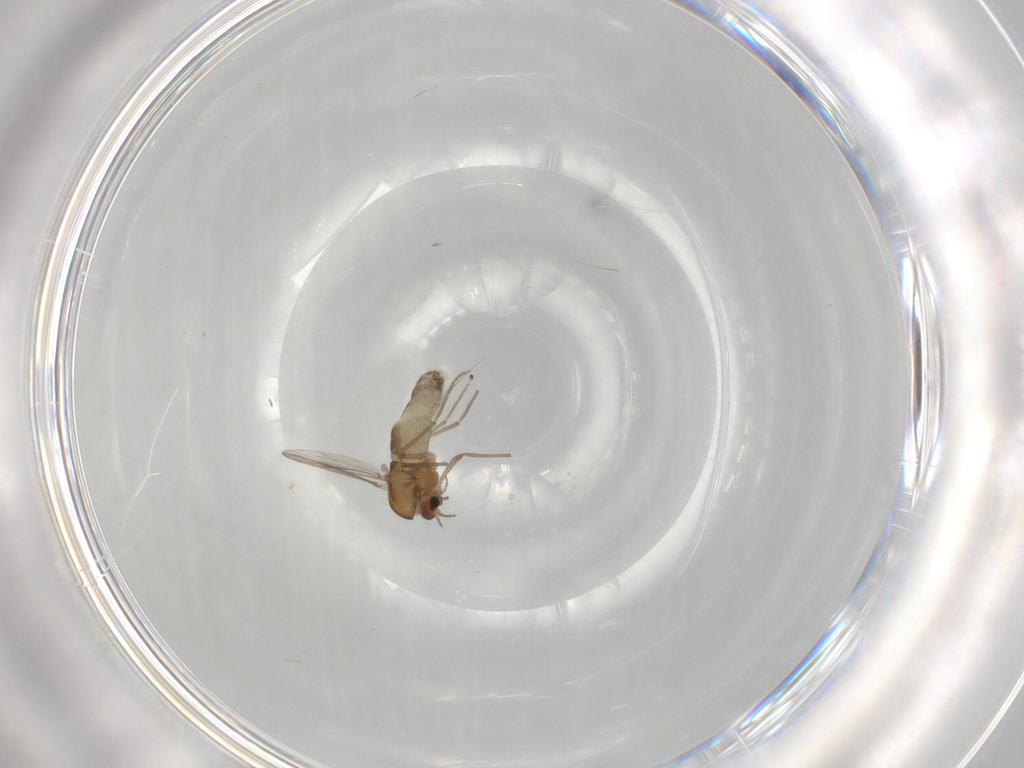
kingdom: Animalia
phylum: Arthropoda
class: Insecta
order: Diptera
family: Chironomidae
